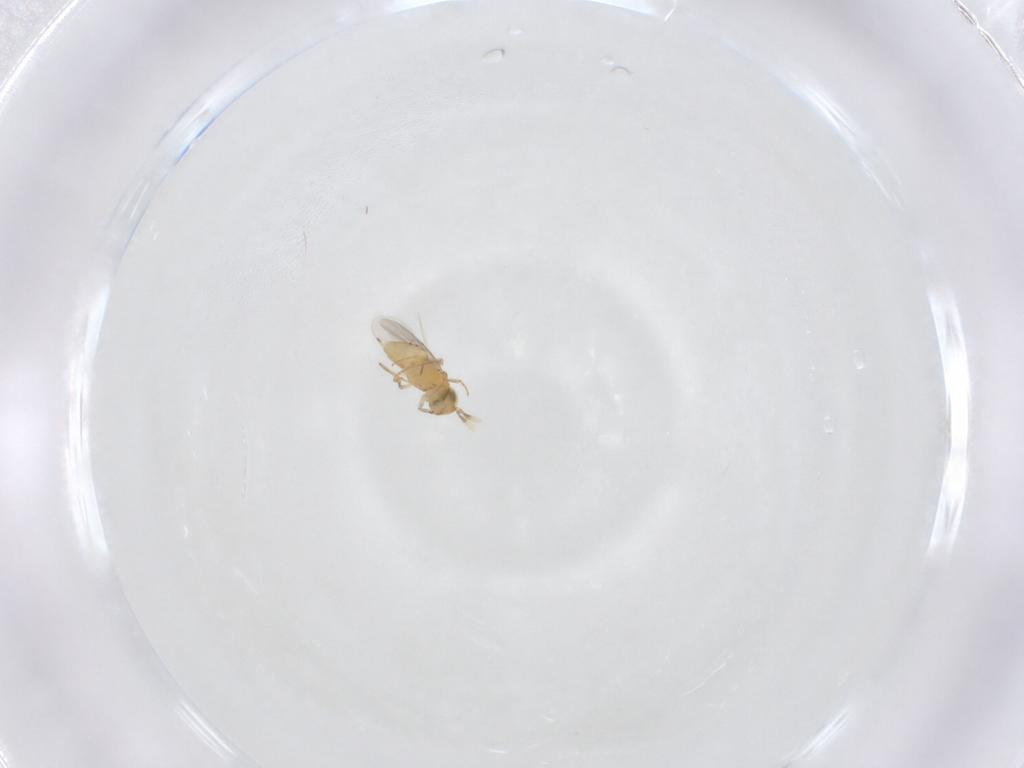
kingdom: Animalia
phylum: Arthropoda
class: Insecta
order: Hymenoptera
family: Encyrtidae
